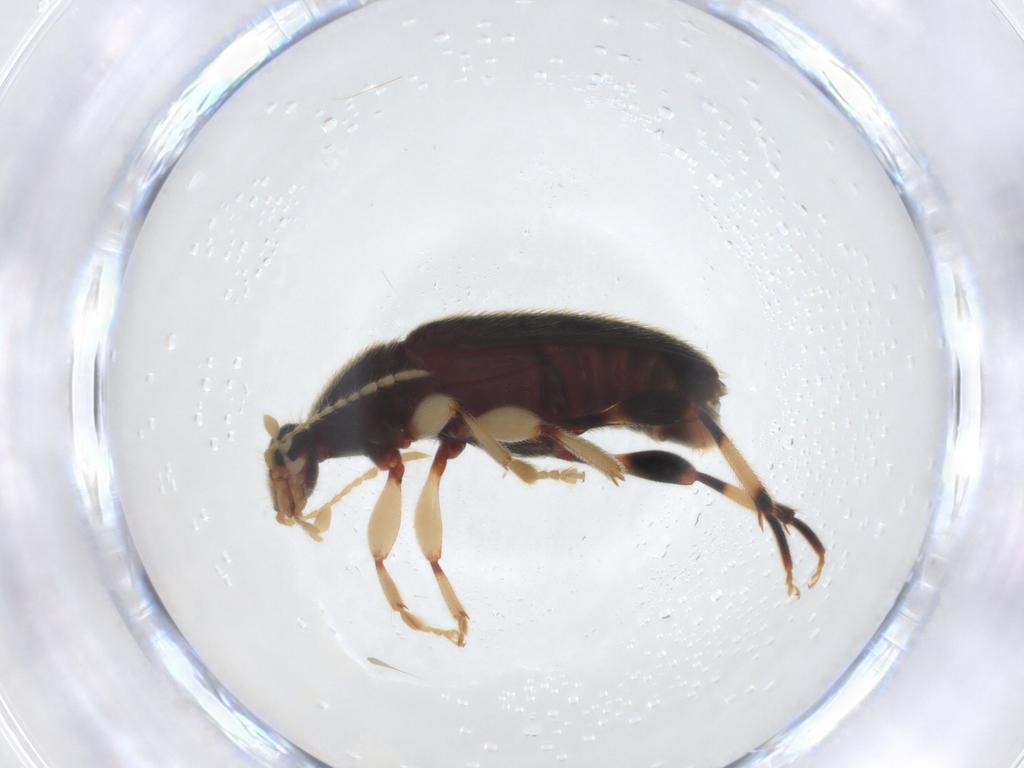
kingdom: Animalia
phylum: Arthropoda
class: Insecta
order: Coleoptera
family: Anthicidae
